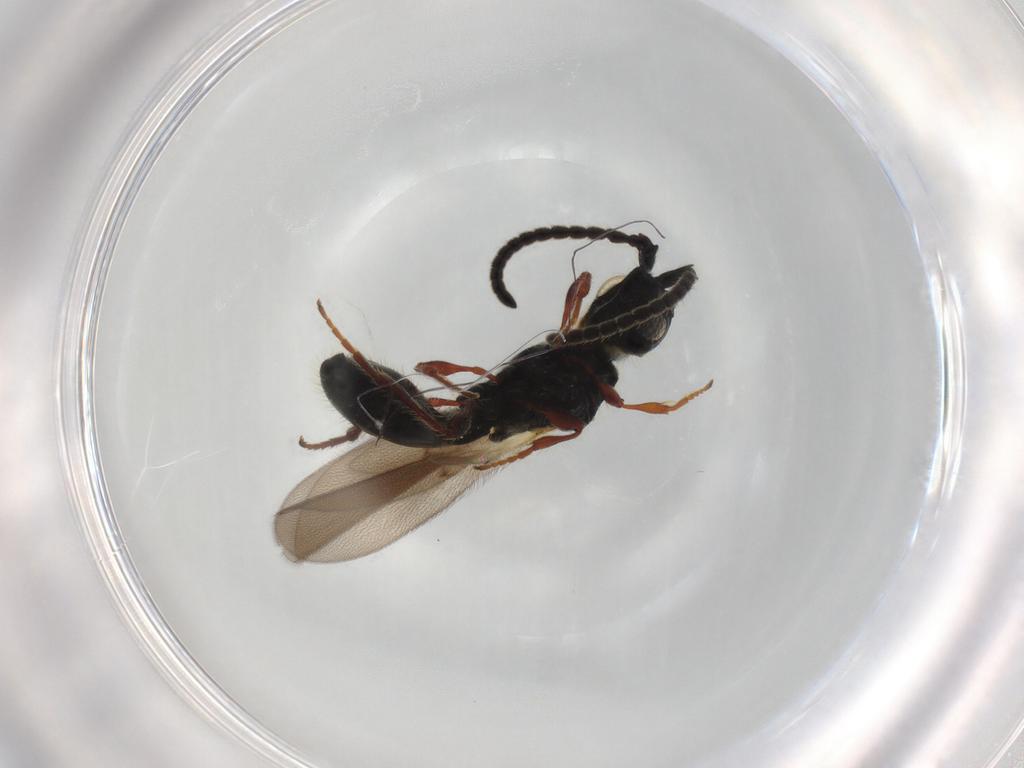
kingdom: Animalia
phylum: Arthropoda
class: Insecta
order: Hymenoptera
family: Diapriidae
